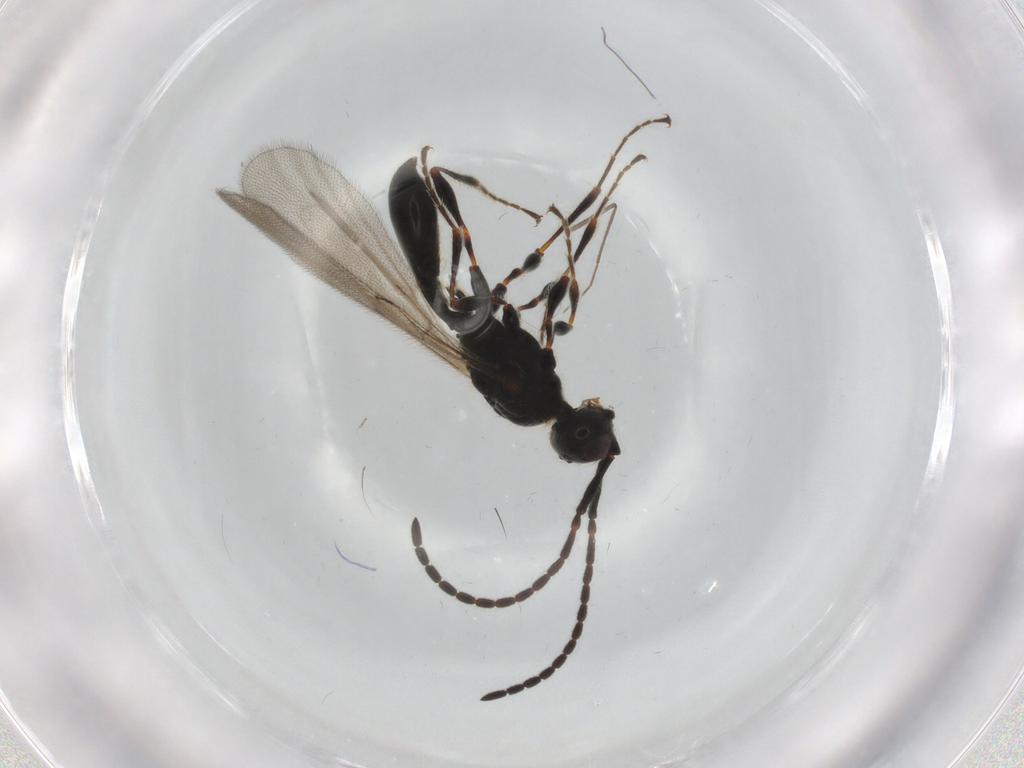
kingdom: Animalia
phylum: Arthropoda
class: Insecta
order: Hymenoptera
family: Diapriidae
